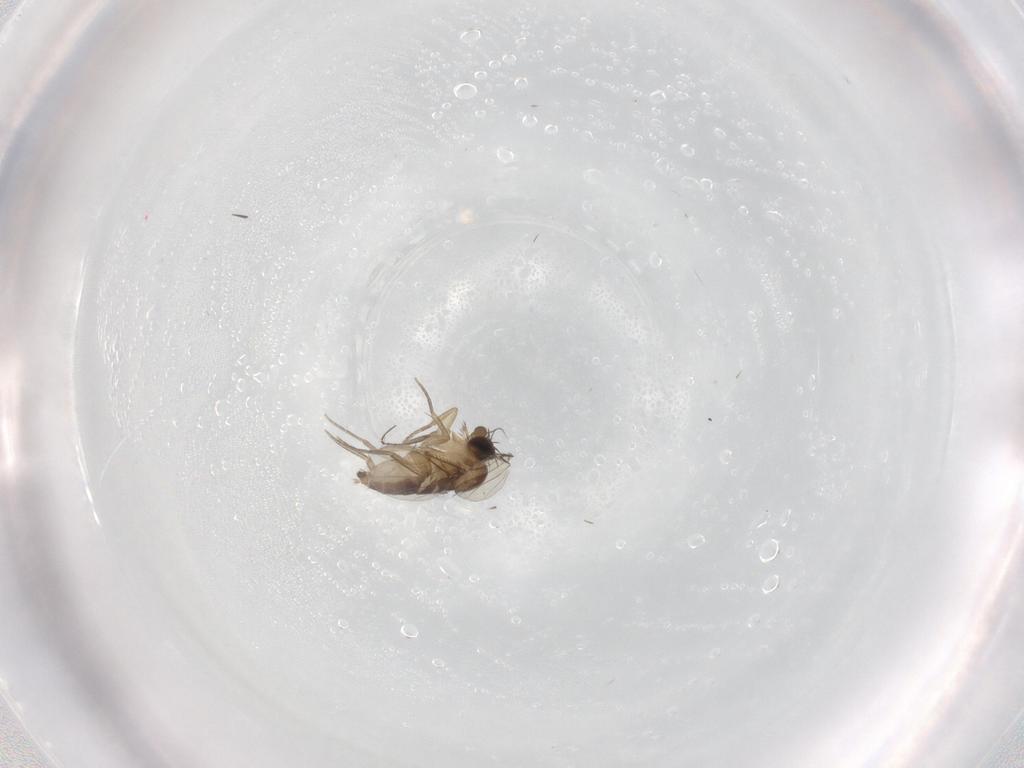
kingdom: Animalia
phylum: Arthropoda
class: Insecta
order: Diptera
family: Phoridae
